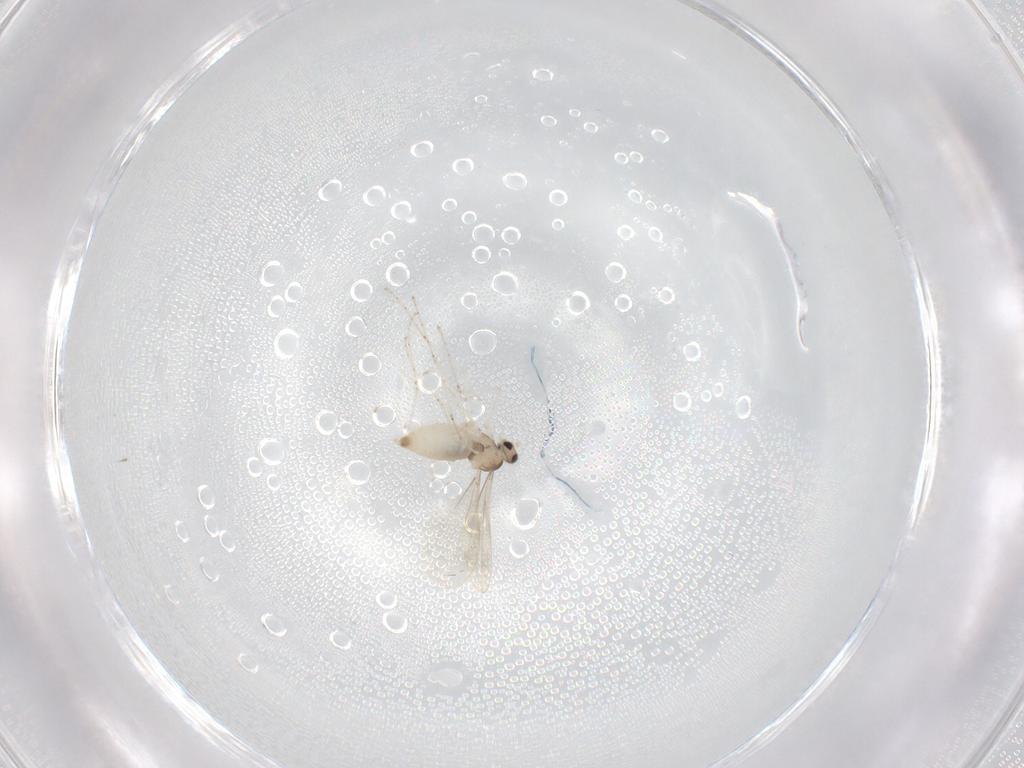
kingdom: Animalia
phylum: Arthropoda
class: Insecta
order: Diptera
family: Cecidomyiidae
